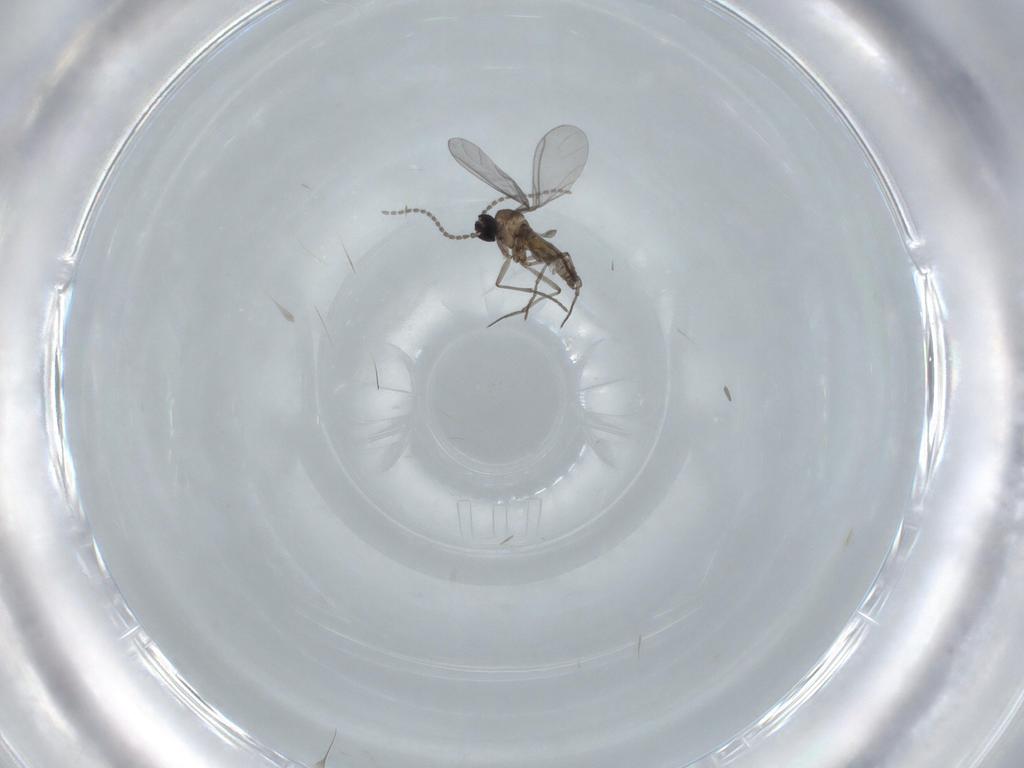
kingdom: Animalia
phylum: Arthropoda
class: Insecta
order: Diptera
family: Sciaridae
